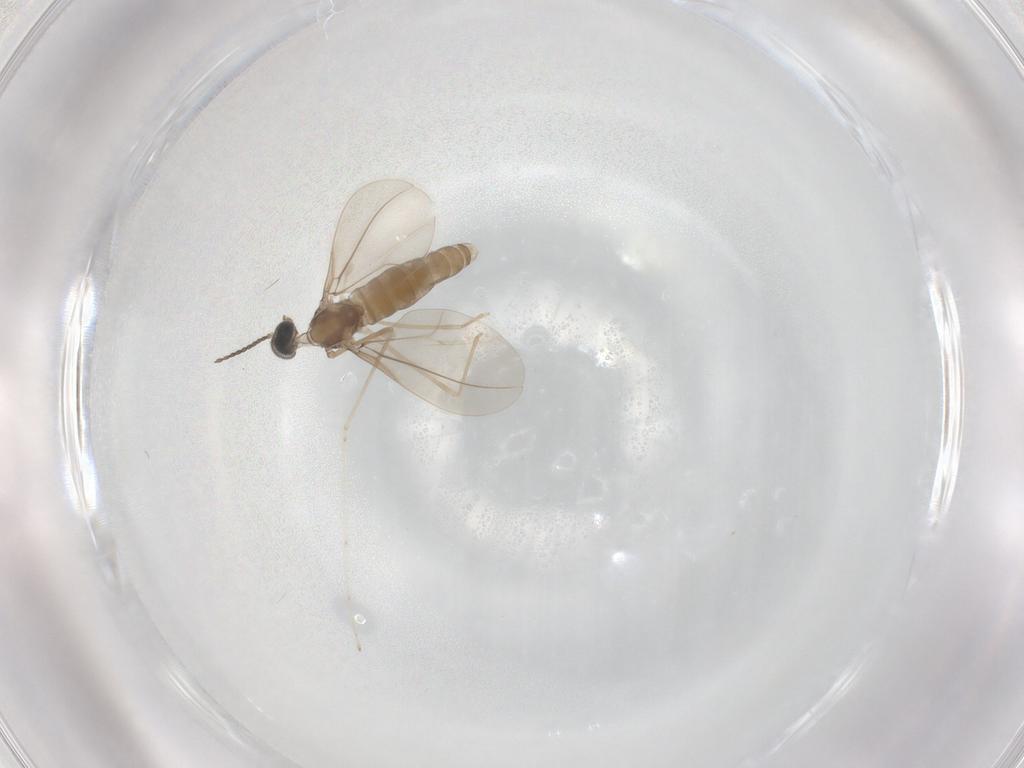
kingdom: Animalia
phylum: Arthropoda
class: Insecta
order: Diptera
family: Cecidomyiidae
